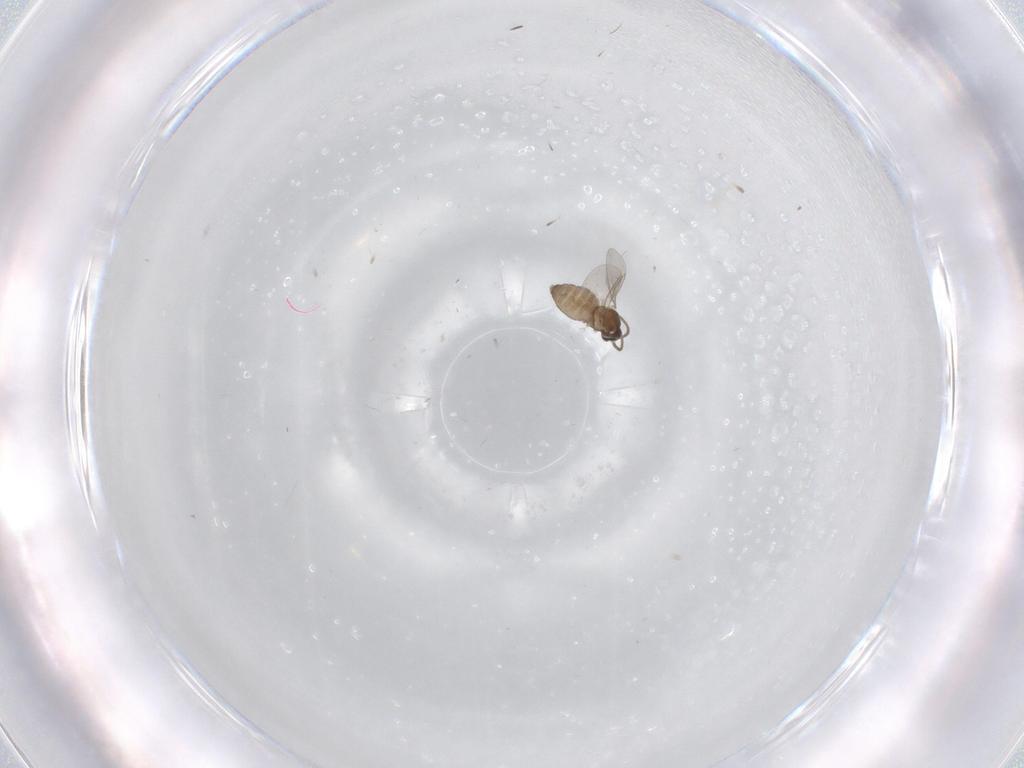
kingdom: Animalia
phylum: Arthropoda
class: Insecta
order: Diptera
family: Cecidomyiidae
